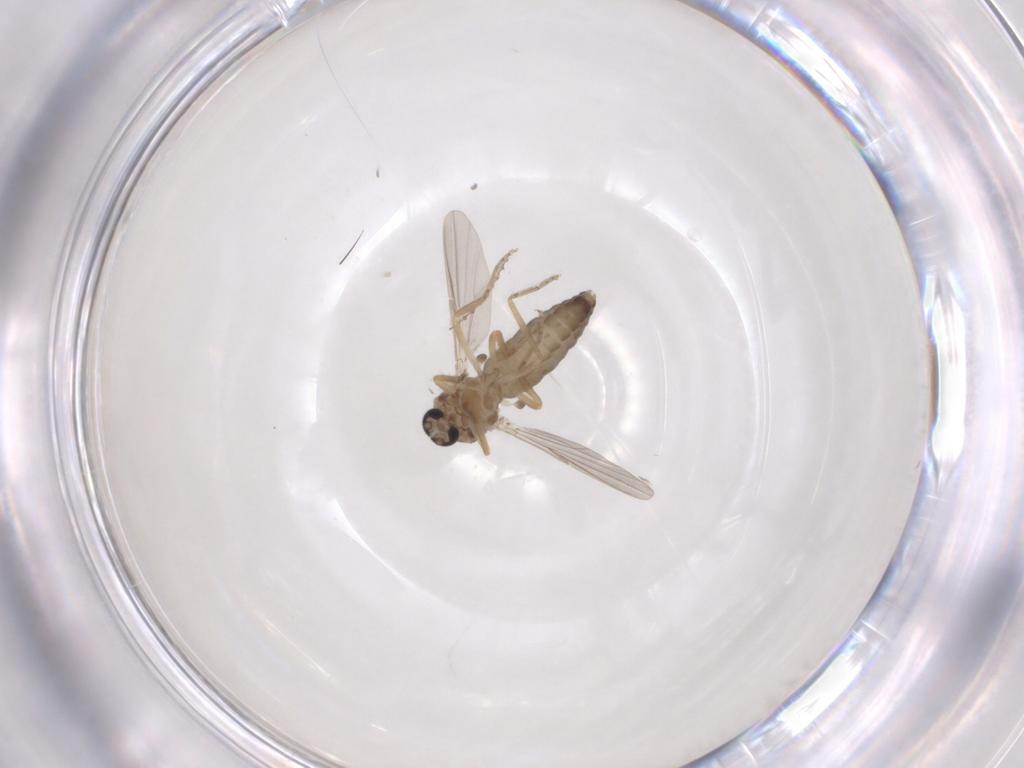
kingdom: Animalia
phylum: Arthropoda
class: Insecta
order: Diptera
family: Ceratopogonidae
